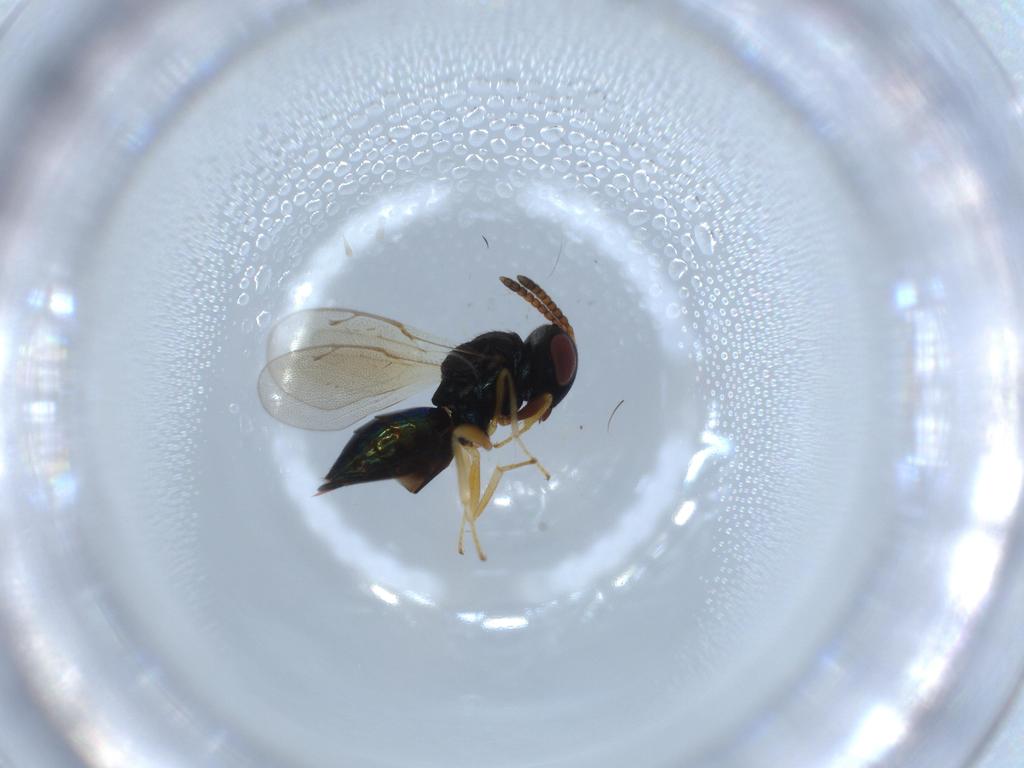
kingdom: Animalia
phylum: Arthropoda
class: Insecta
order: Hymenoptera
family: Pteromalidae
